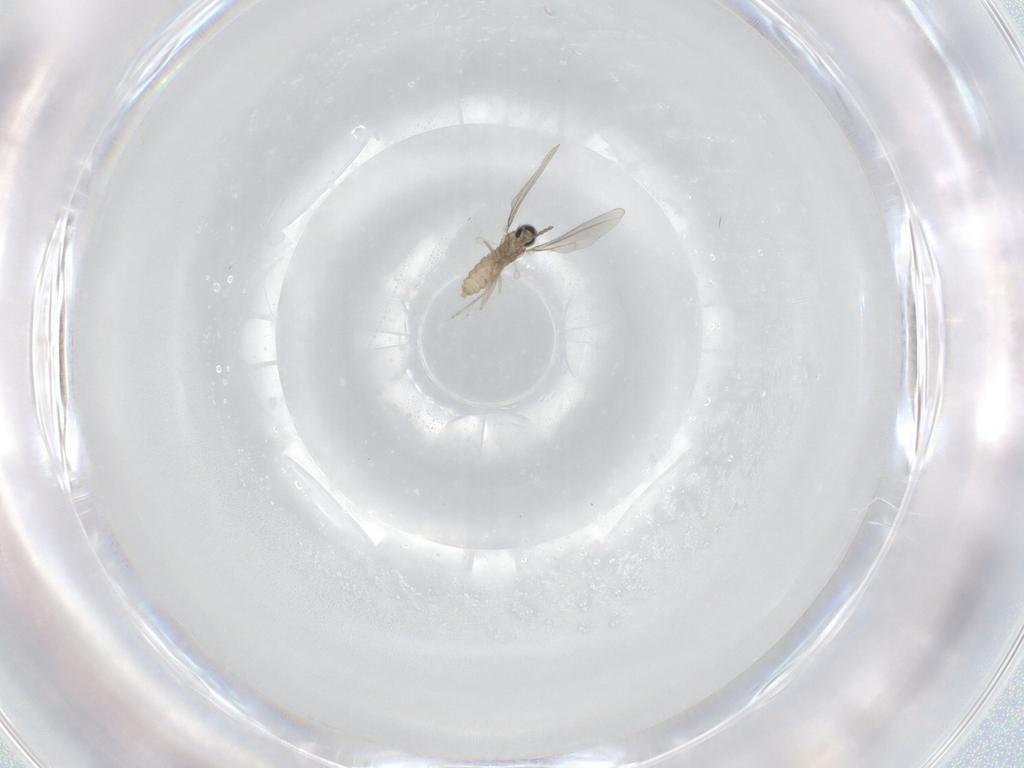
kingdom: Animalia
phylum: Arthropoda
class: Insecta
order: Diptera
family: Cecidomyiidae
